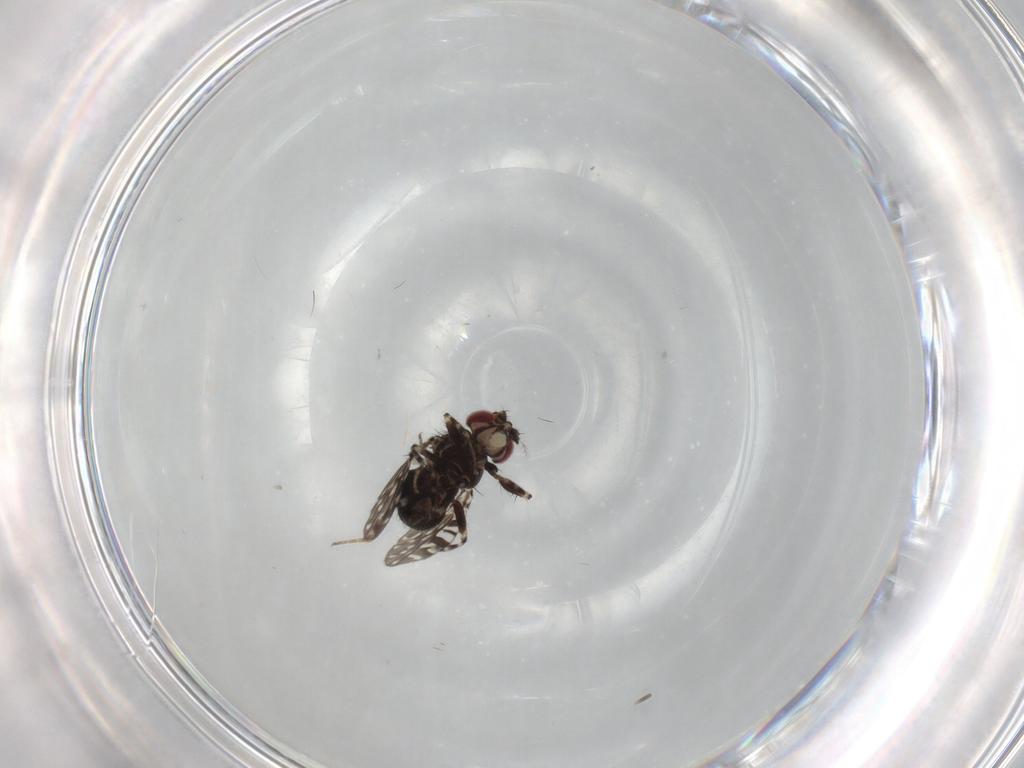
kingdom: Animalia
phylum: Arthropoda
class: Insecta
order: Diptera
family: Drosophilidae
